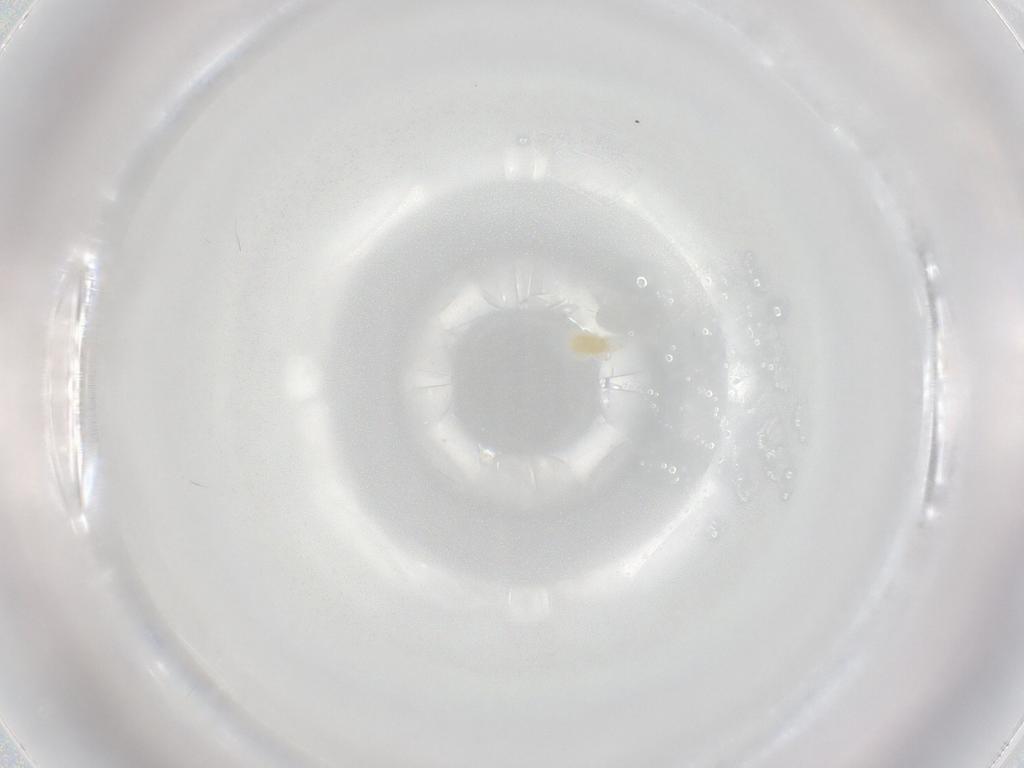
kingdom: Animalia
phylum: Arthropoda
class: Arachnida
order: Trombidiformes
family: Eupodidae
